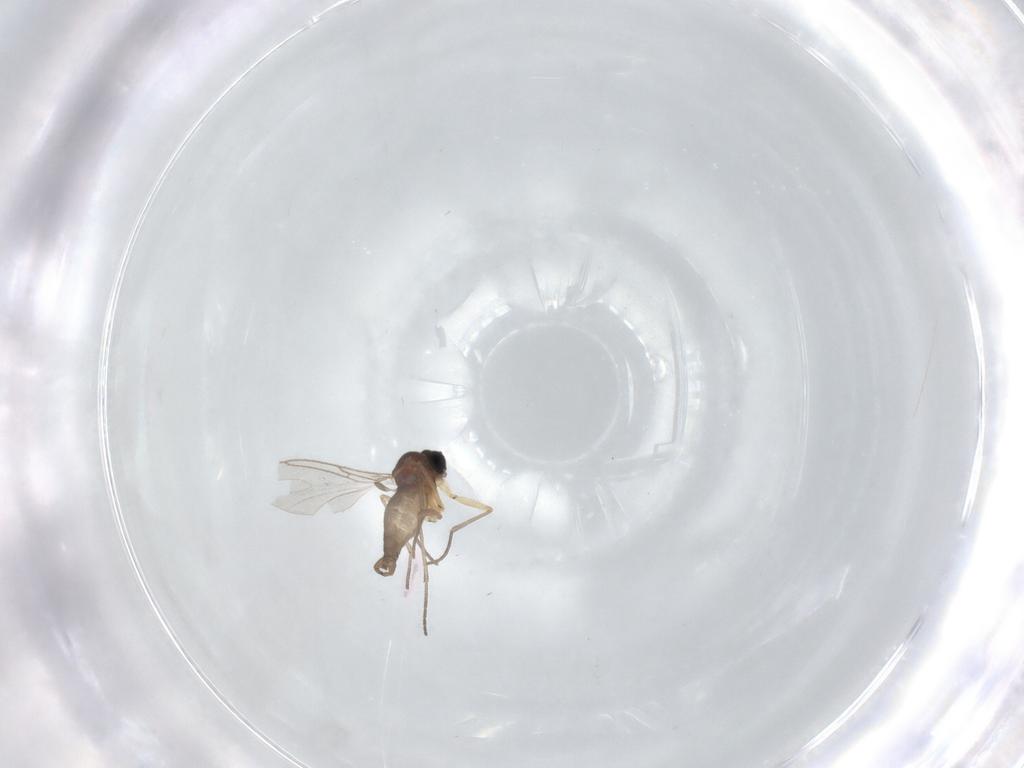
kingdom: Animalia
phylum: Arthropoda
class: Insecta
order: Diptera
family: Sciaridae
